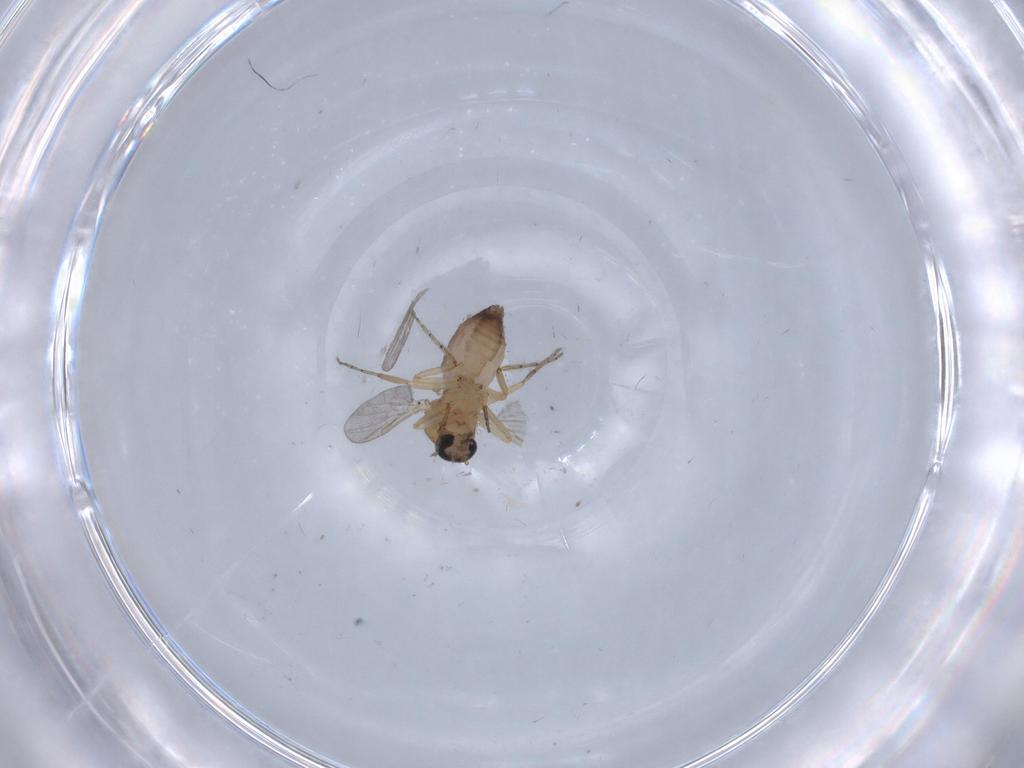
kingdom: Animalia
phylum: Arthropoda
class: Insecta
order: Diptera
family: Ceratopogonidae
